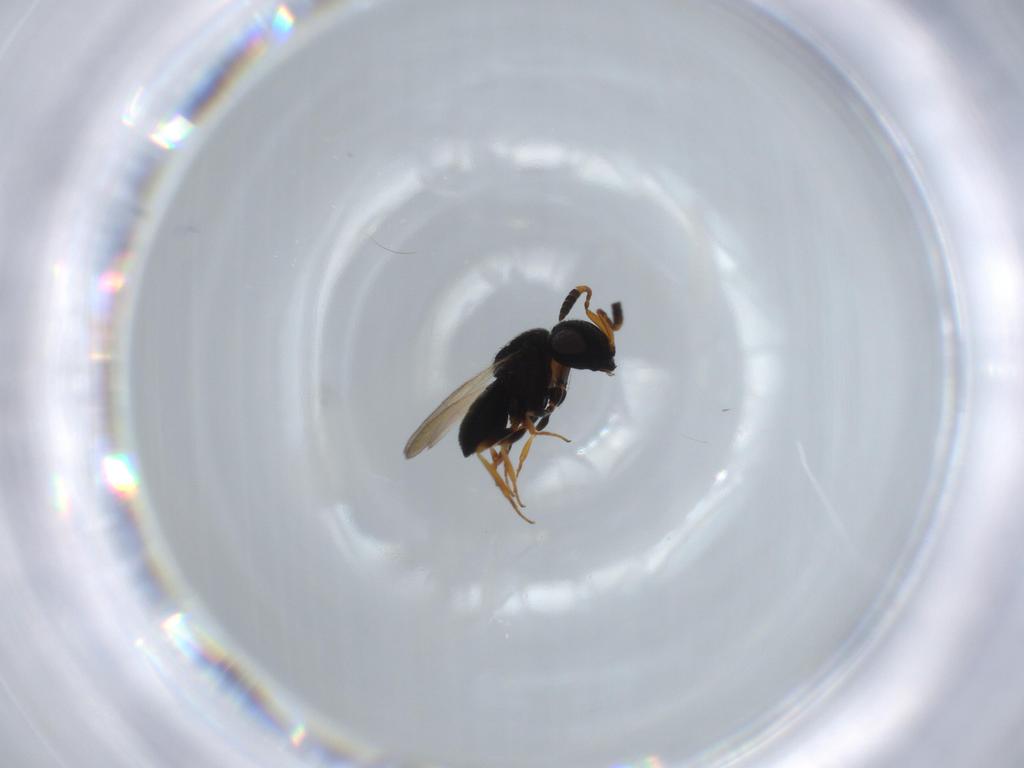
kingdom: Animalia
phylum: Arthropoda
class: Insecta
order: Hymenoptera
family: Scelionidae
